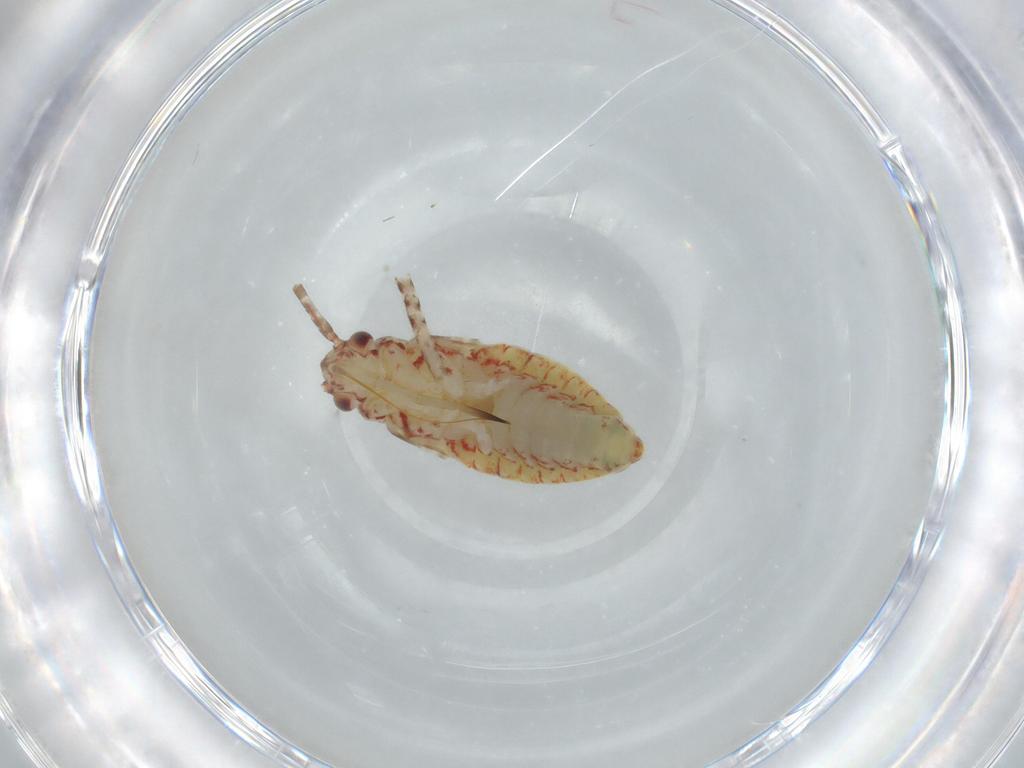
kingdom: Animalia
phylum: Arthropoda
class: Insecta
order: Hemiptera
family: Miridae
